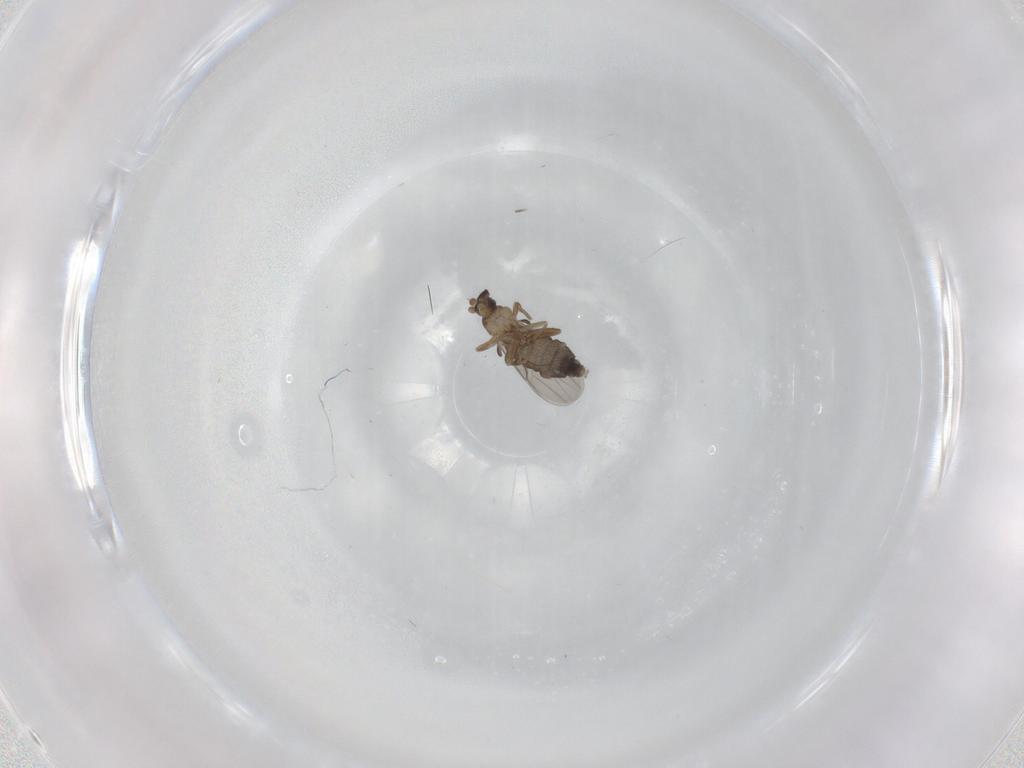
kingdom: Animalia
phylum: Arthropoda
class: Insecta
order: Diptera
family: Phoridae
